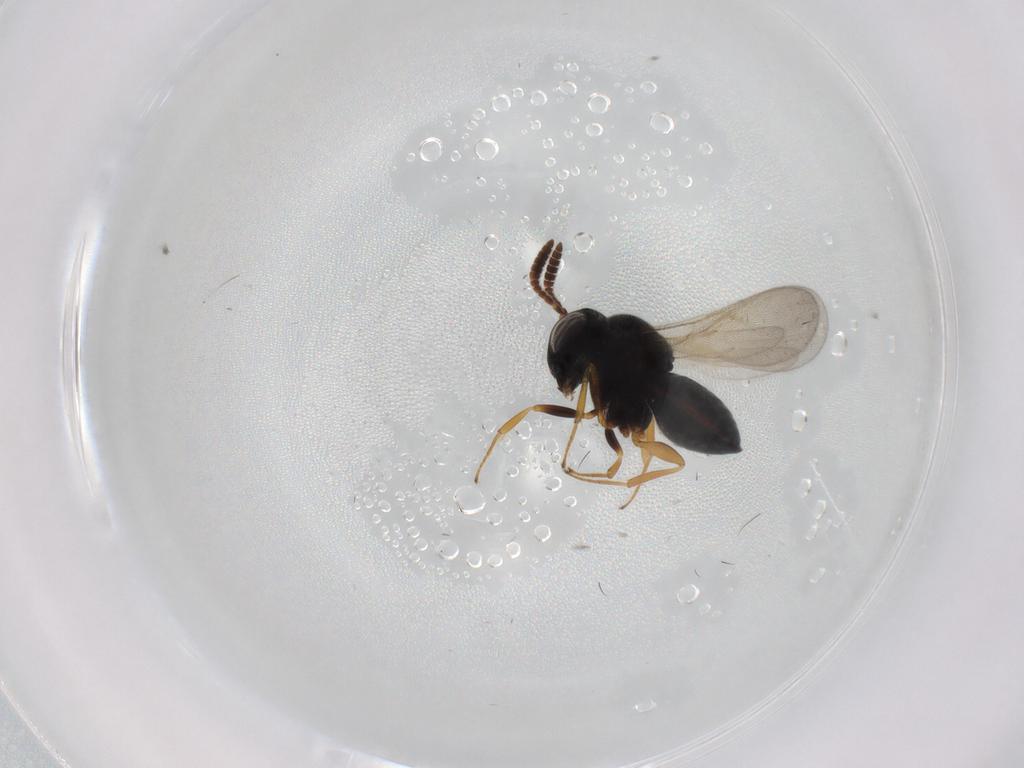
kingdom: Animalia
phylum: Arthropoda
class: Insecta
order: Hymenoptera
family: Scelionidae
